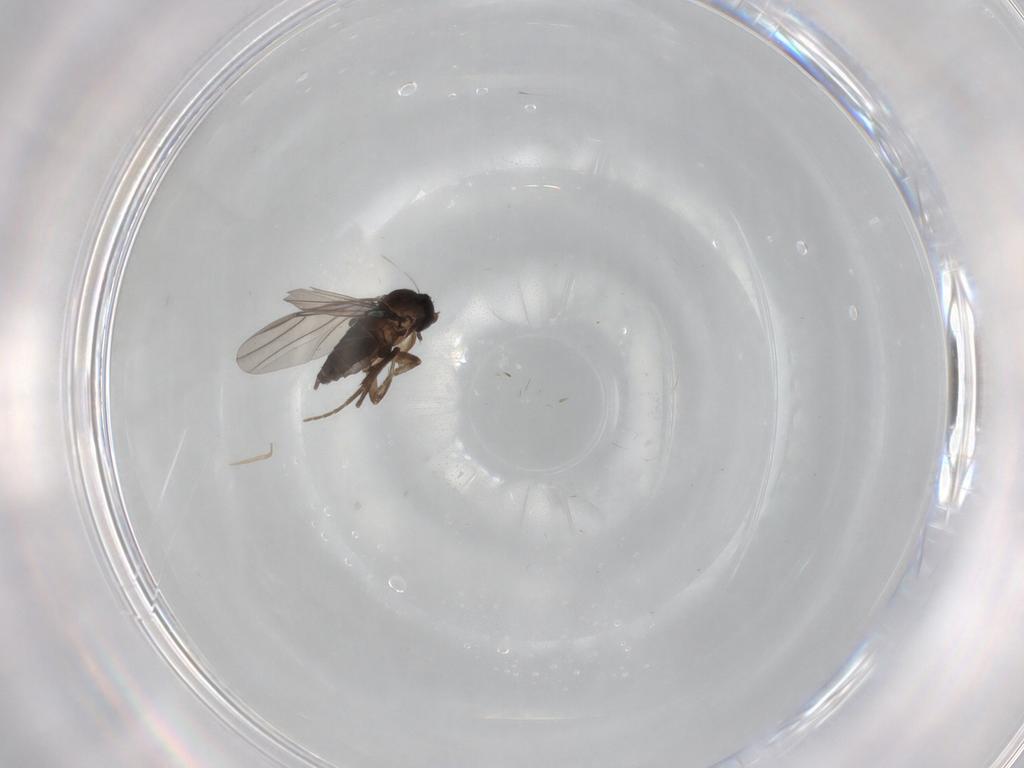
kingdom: Animalia
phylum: Arthropoda
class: Insecta
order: Diptera
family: Phoridae
